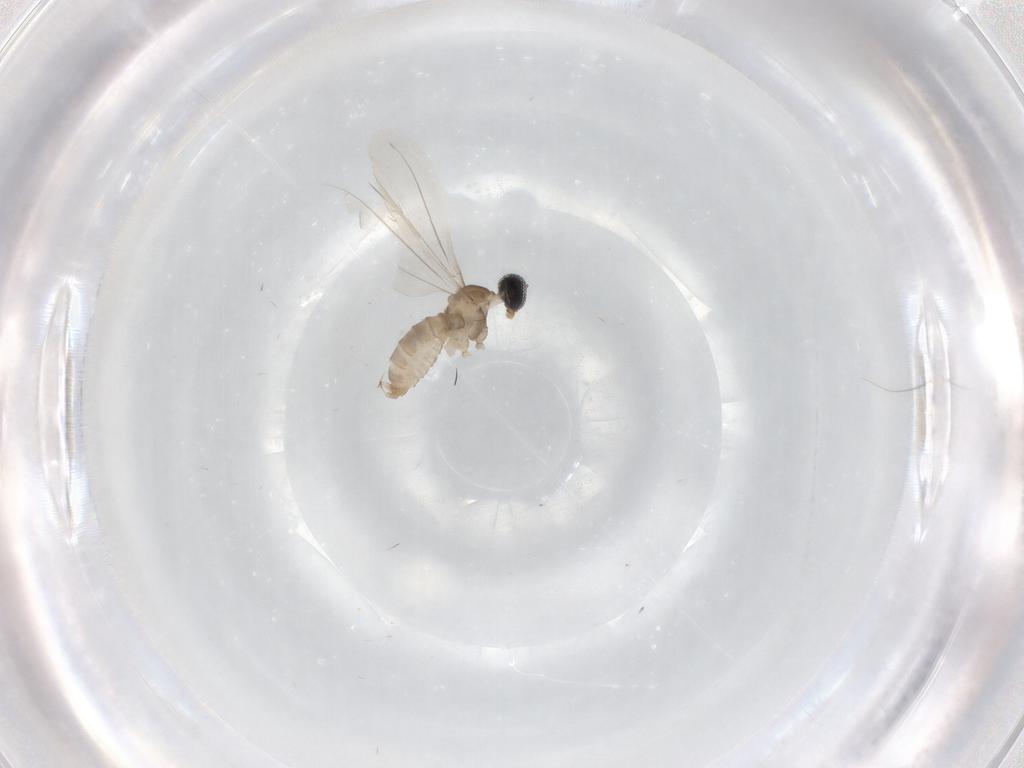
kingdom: Animalia
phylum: Arthropoda
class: Insecta
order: Diptera
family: Cecidomyiidae
